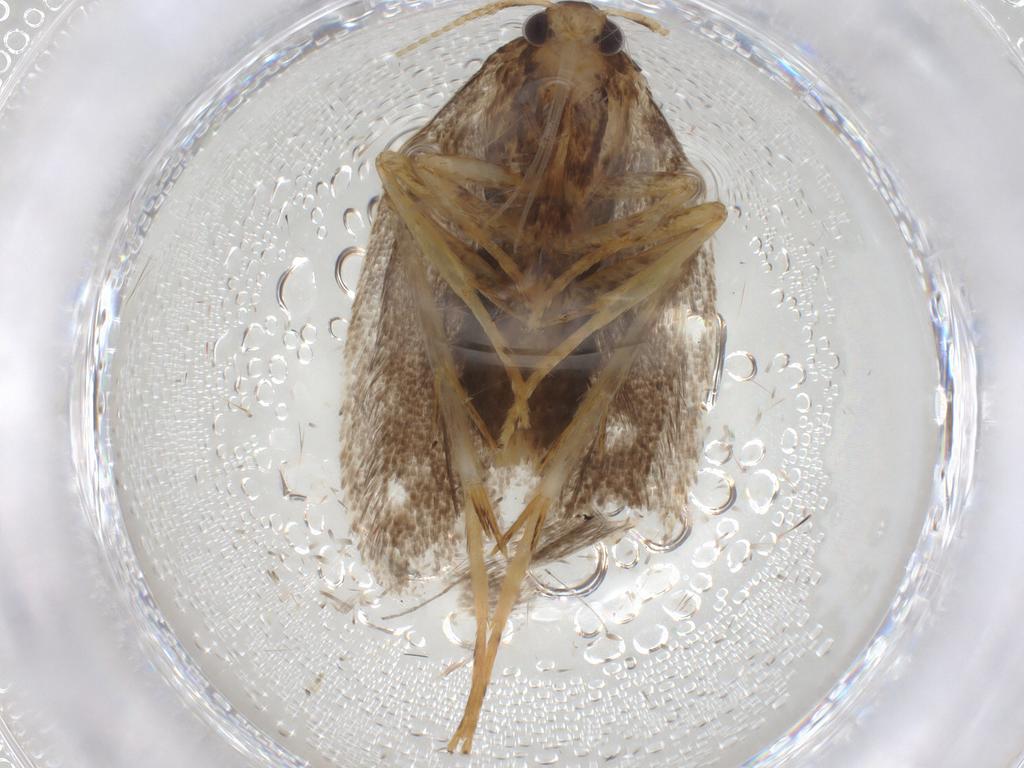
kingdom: Animalia
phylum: Arthropoda
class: Insecta
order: Lepidoptera
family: Lecithoceridae
